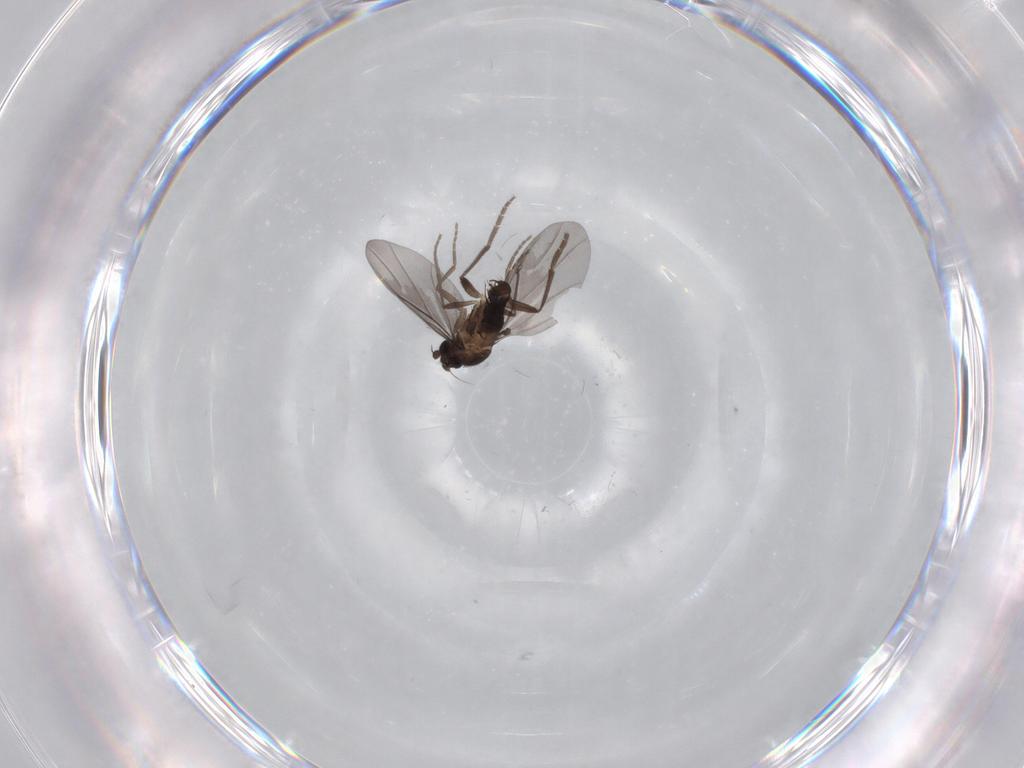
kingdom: Animalia
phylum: Arthropoda
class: Insecta
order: Diptera
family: Phoridae
